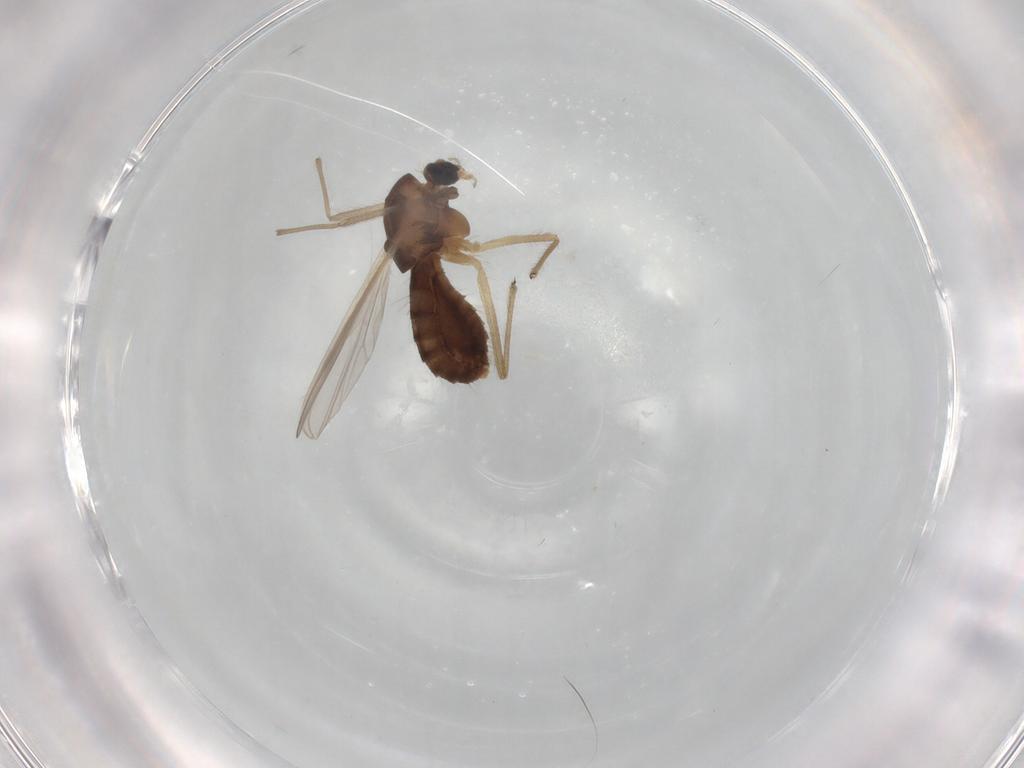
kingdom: Animalia
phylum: Arthropoda
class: Insecta
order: Diptera
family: Chironomidae
